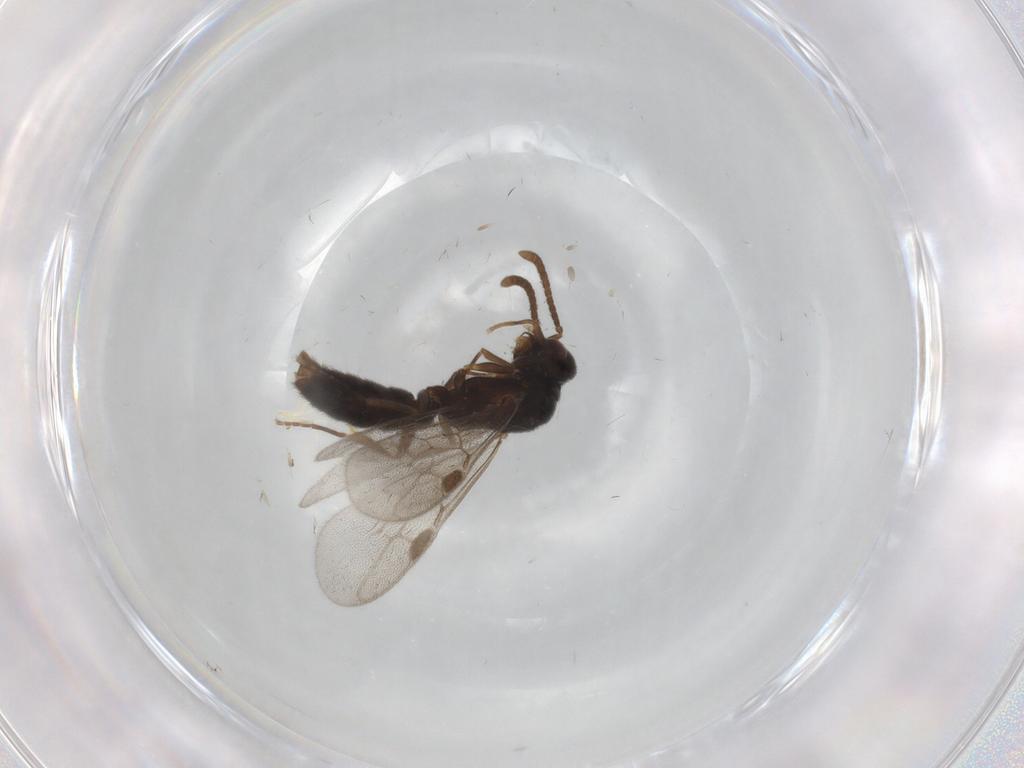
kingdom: Animalia
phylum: Arthropoda
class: Insecta
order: Hymenoptera
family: Formicidae
